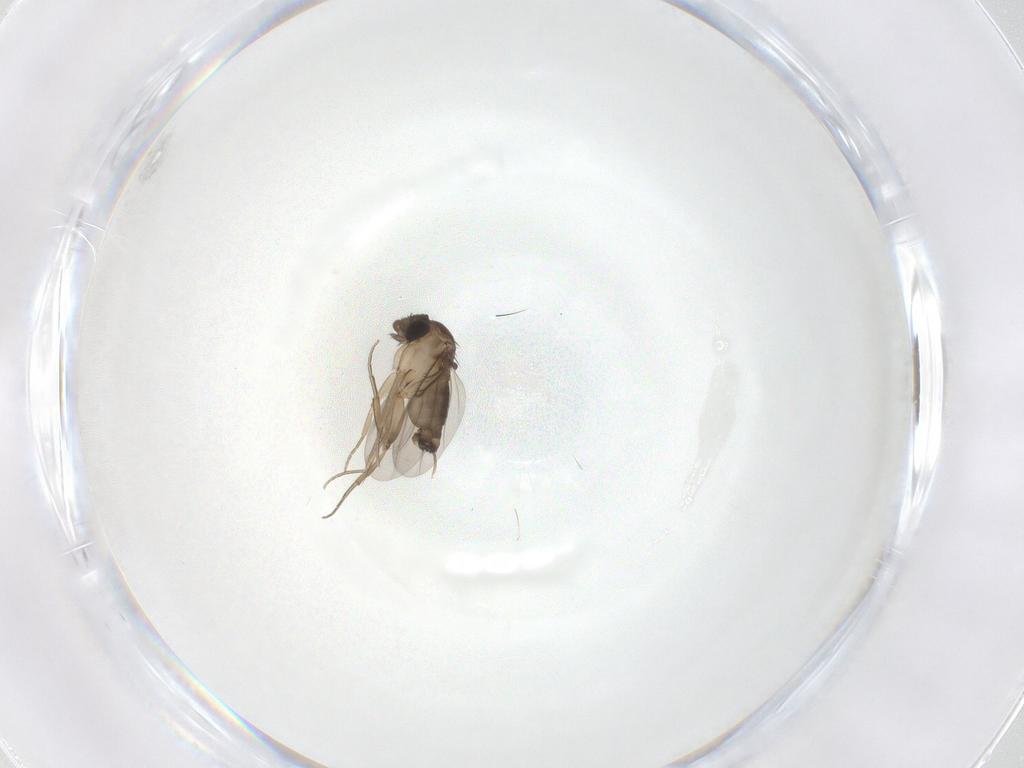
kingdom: Animalia
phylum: Arthropoda
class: Insecta
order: Diptera
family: Phoridae
